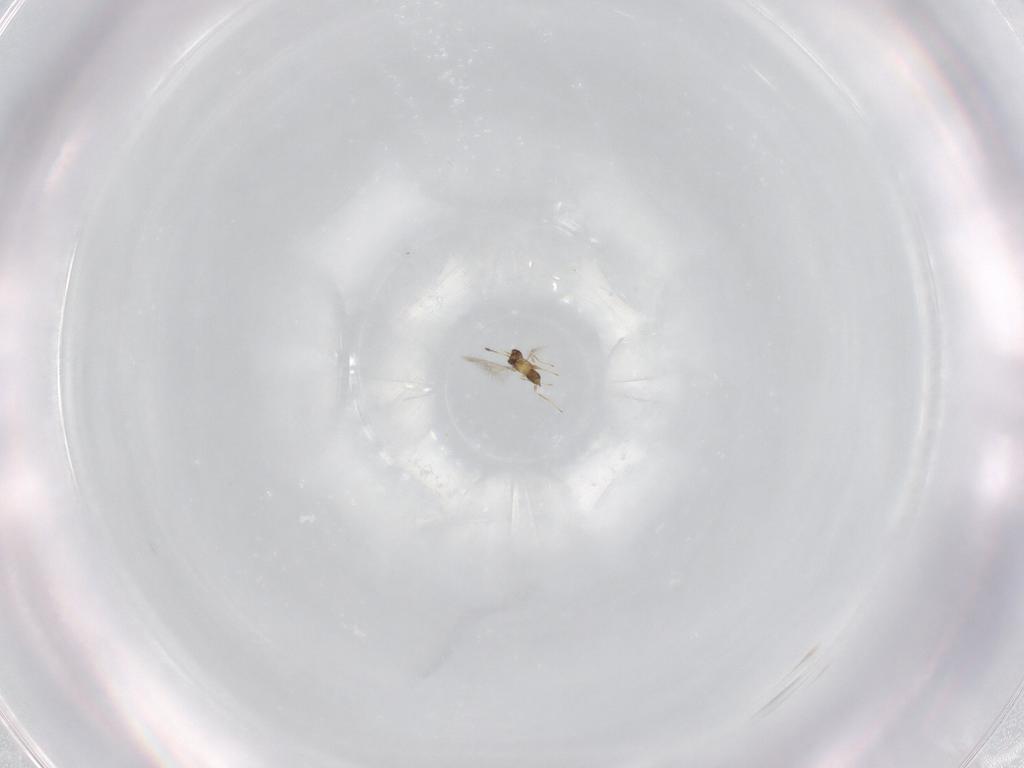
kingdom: Animalia
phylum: Arthropoda
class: Insecta
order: Hymenoptera
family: Mymaridae
